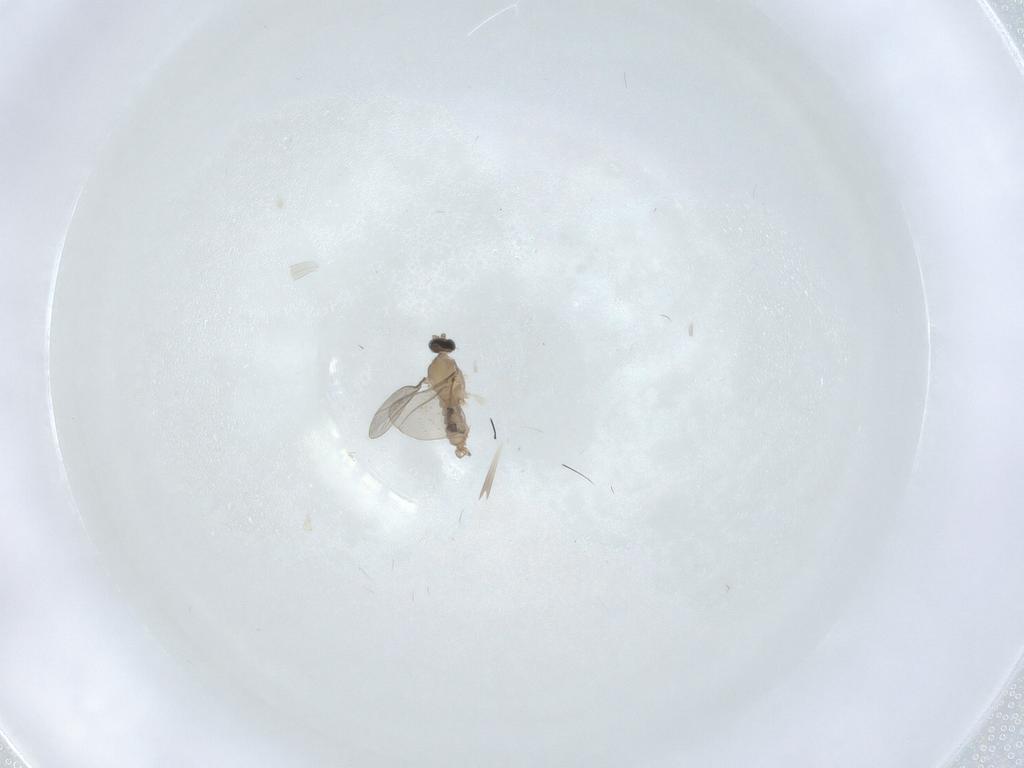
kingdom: Animalia
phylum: Arthropoda
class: Insecta
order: Diptera
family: Cecidomyiidae
